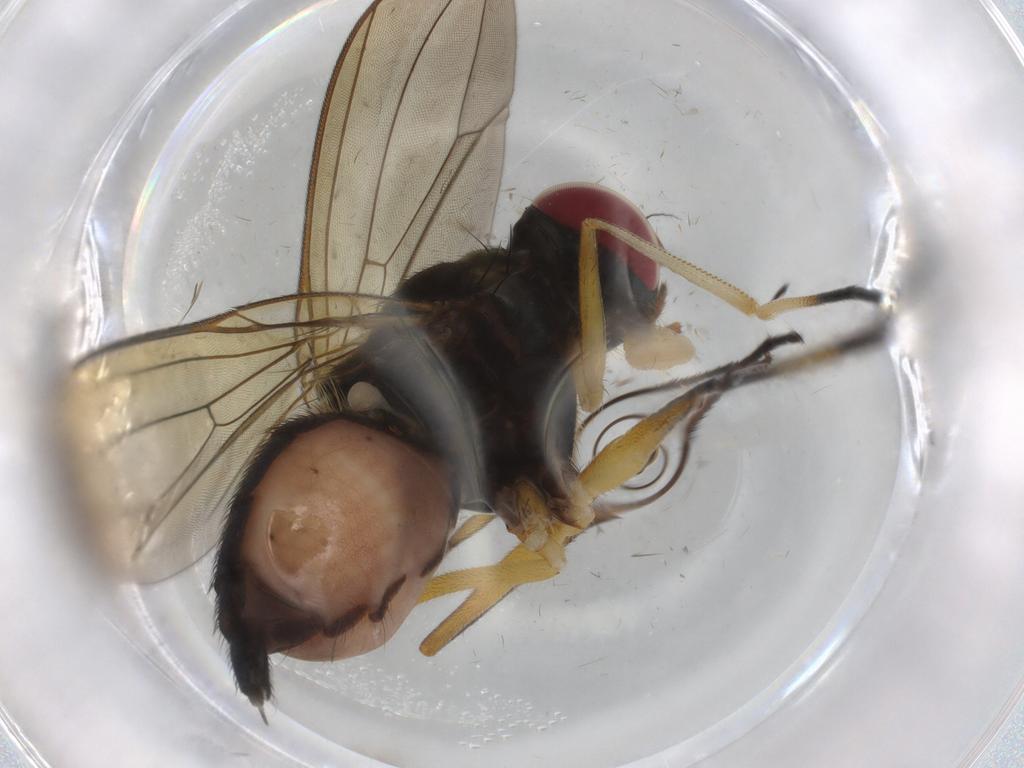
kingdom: Animalia
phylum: Arthropoda
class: Insecta
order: Diptera
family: Heleomyzidae
